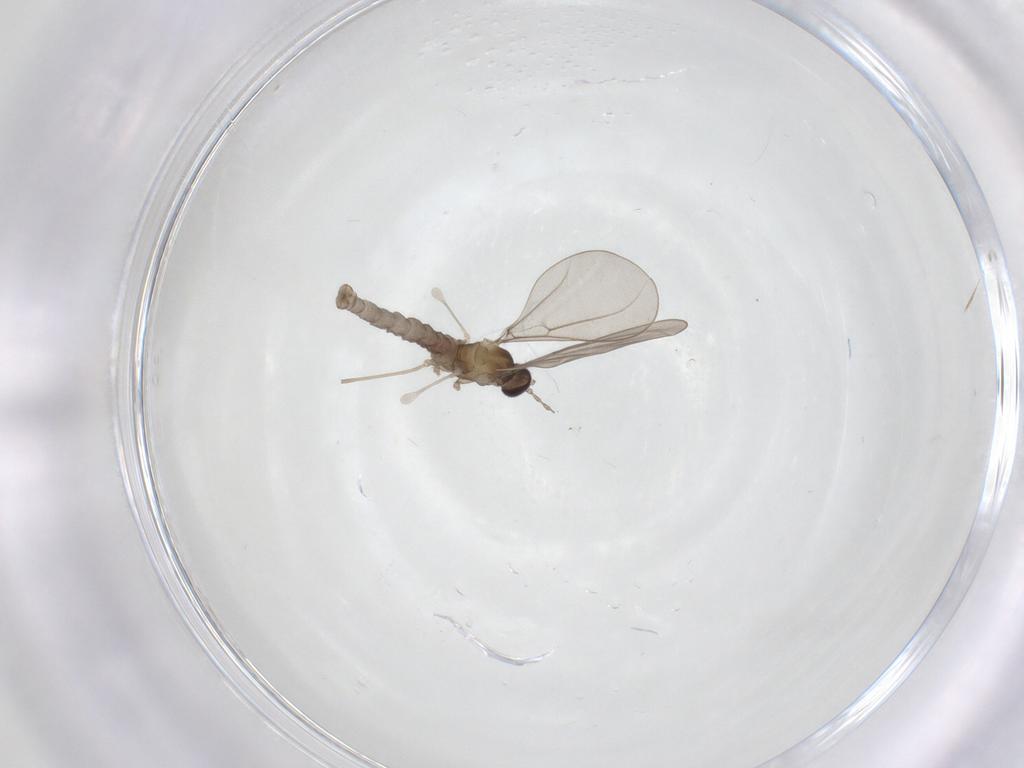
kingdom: Animalia
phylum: Arthropoda
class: Insecta
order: Diptera
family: Cecidomyiidae
